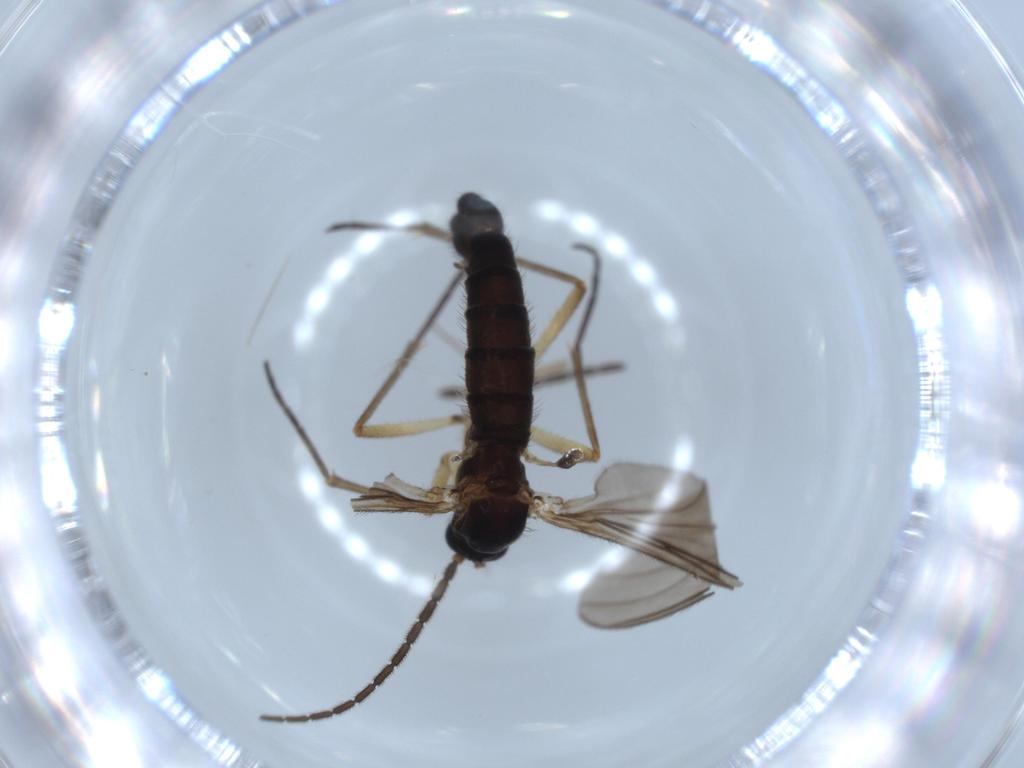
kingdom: Animalia
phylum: Arthropoda
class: Insecta
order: Diptera
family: Sciaridae
